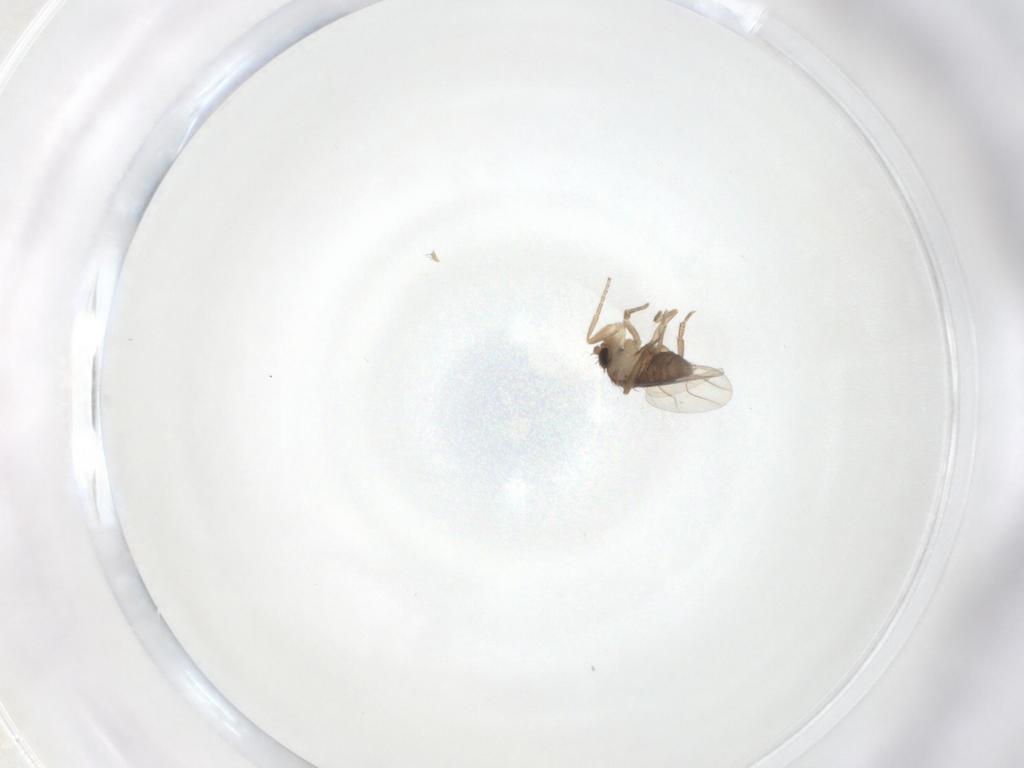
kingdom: Animalia
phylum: Arthropoda
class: Insecta
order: Diptera
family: Phoridae
